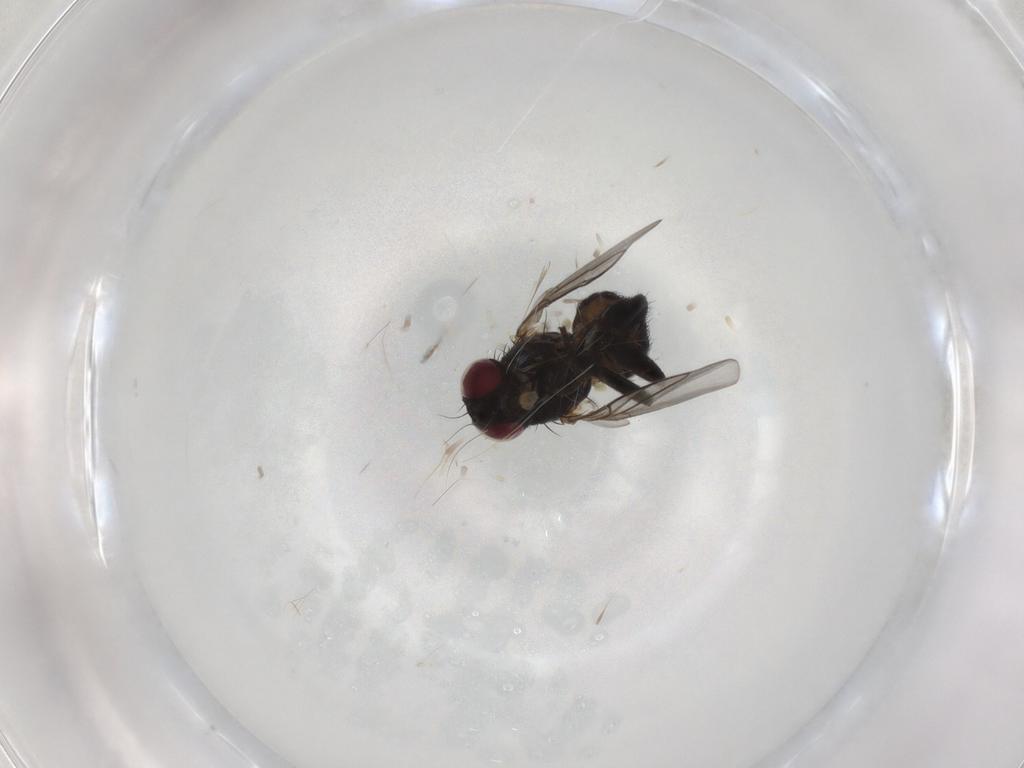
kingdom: Animalia
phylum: Arthropoda
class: Insecta
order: Diptera
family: Agromyzidae
